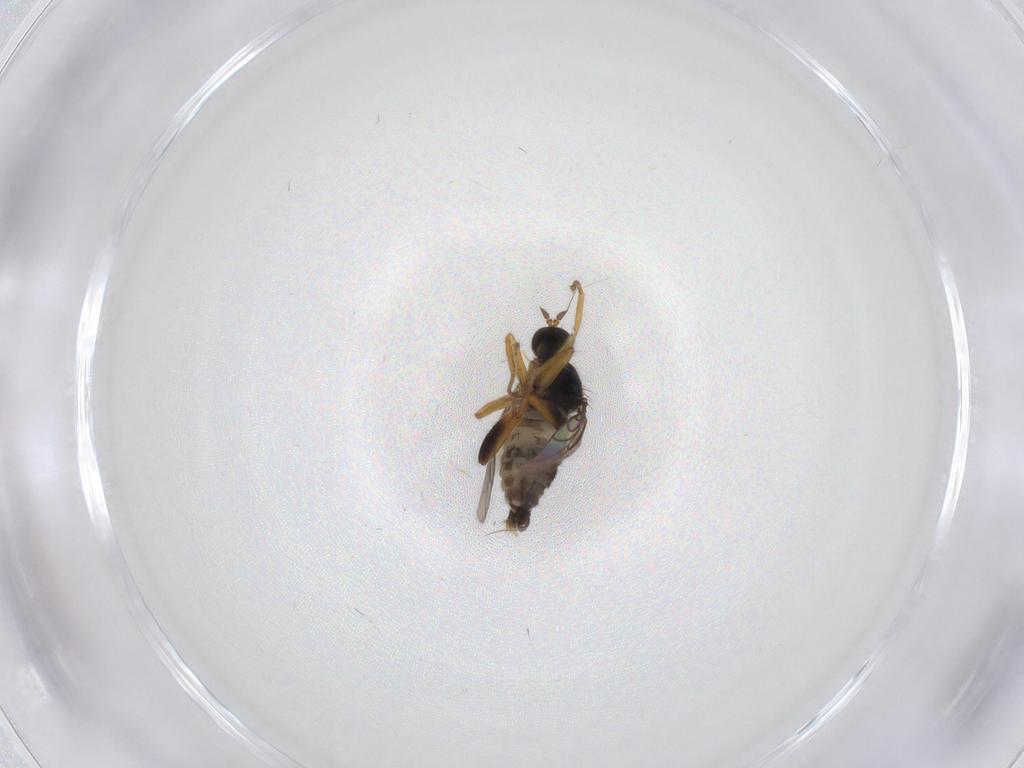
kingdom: Animalia
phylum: Arthropoda
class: Insecta
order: Diptera
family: Hybotidae
